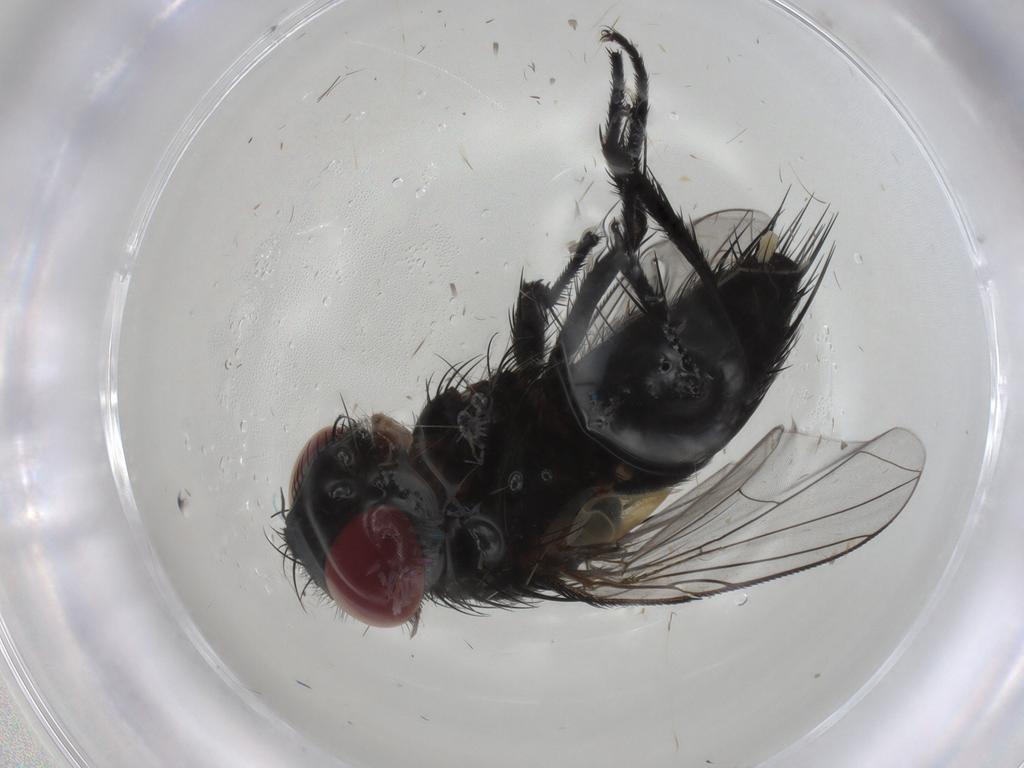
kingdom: Animalia
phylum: Arthropoda
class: Insecta
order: Diptera
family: Tachinidae
